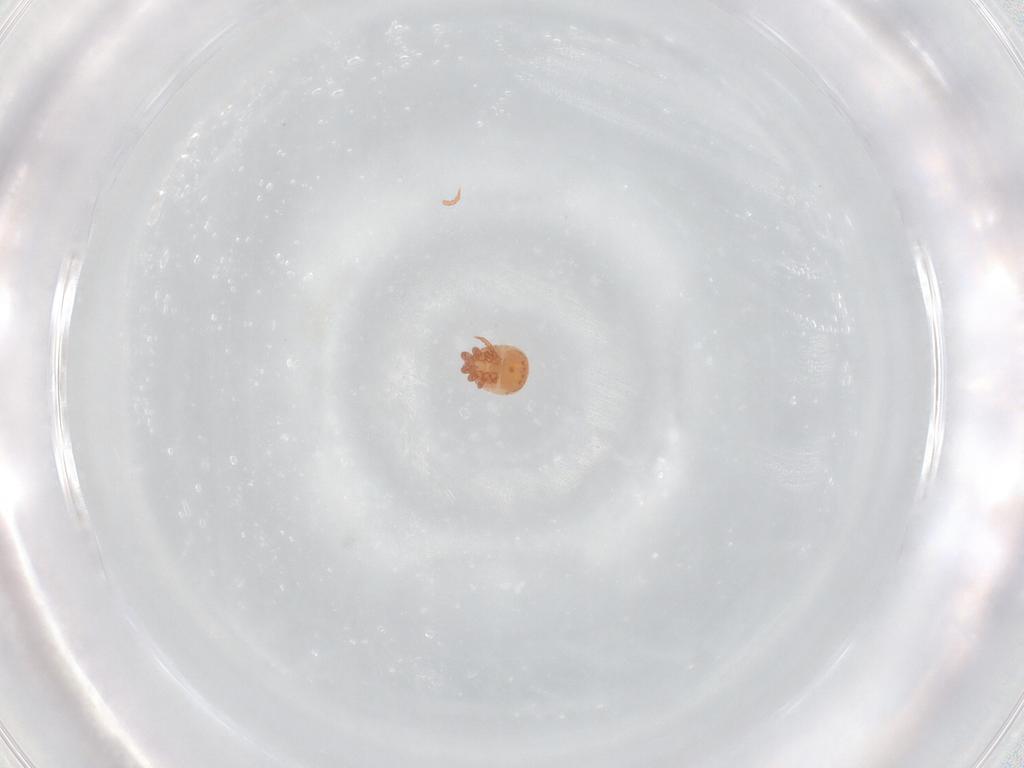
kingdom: Animalia
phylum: Arthropoda
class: Arachnida
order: Mesostigmata
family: Zerconidae
